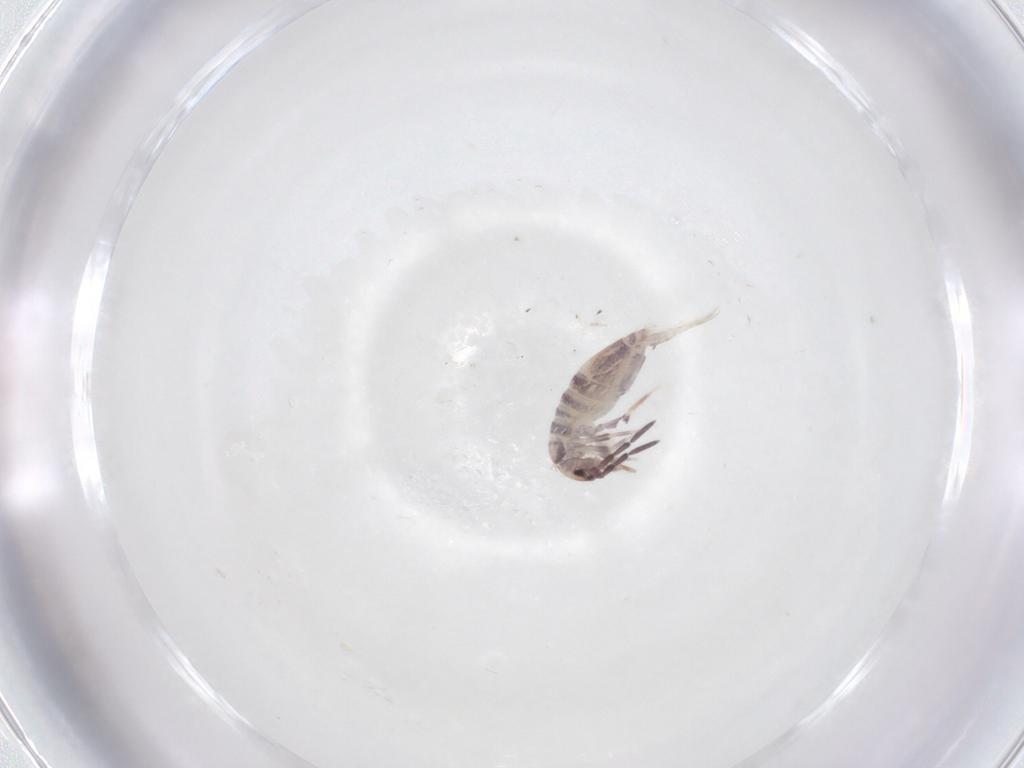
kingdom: Animalia
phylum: Arthropoda
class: Collembola
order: Poduromorpha
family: Hypogastruridae
